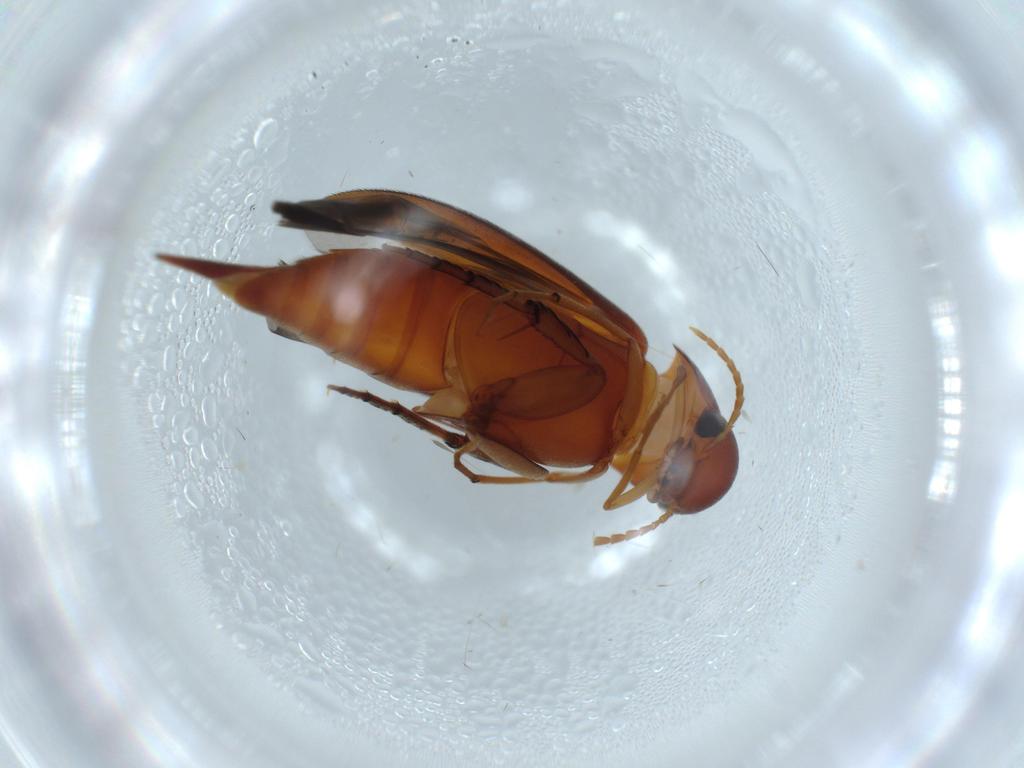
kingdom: Animalia
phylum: Arthropoda
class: Insecta
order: Coleoptera
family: Mordellidae
